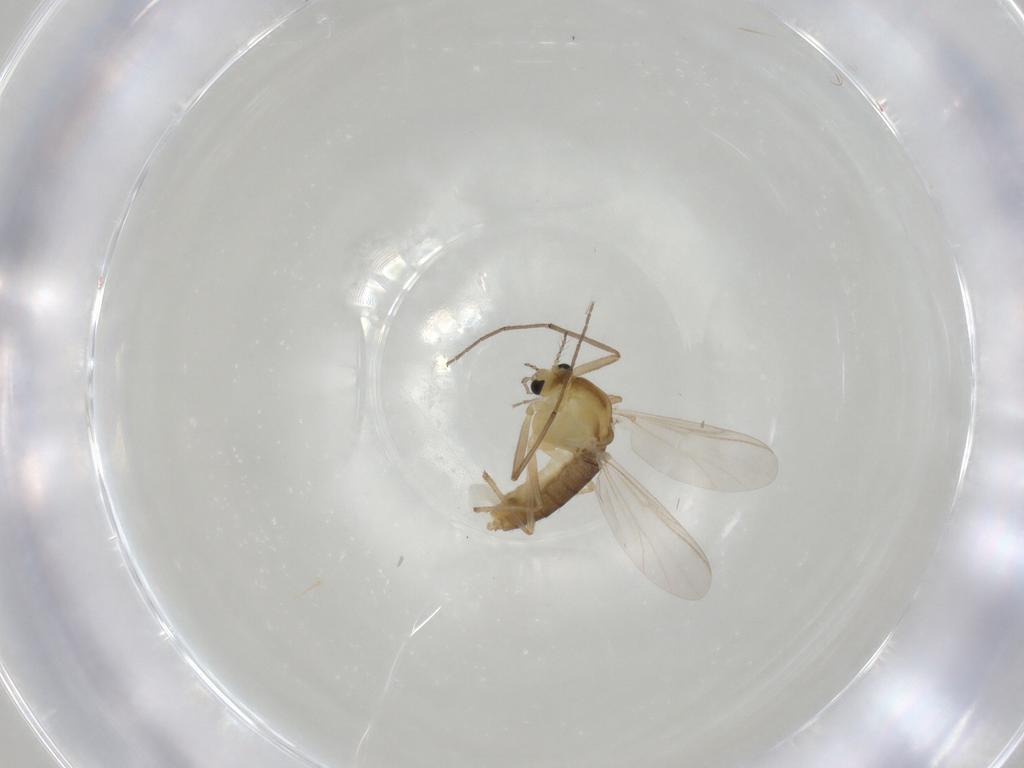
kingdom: Animalia
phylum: Arthropoda
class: Insecta
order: Diptera
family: Chironomidae
